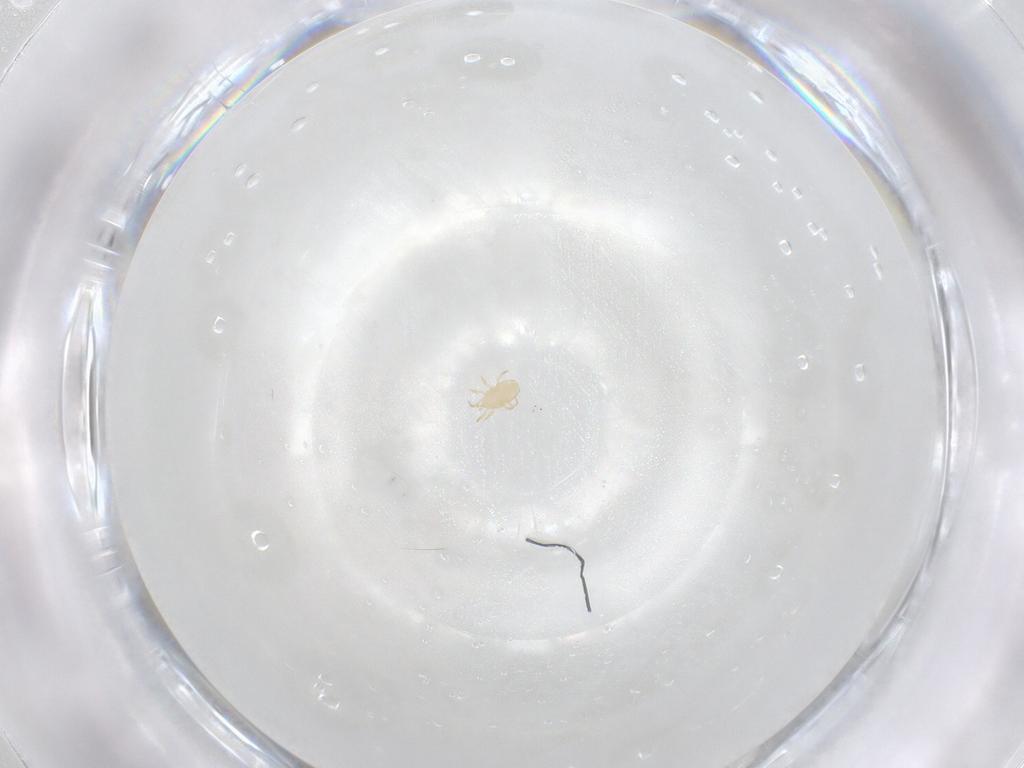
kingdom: Animalia
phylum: Arthropoda
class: Arachnida
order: Mesostigmata
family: Phytoseiidae
